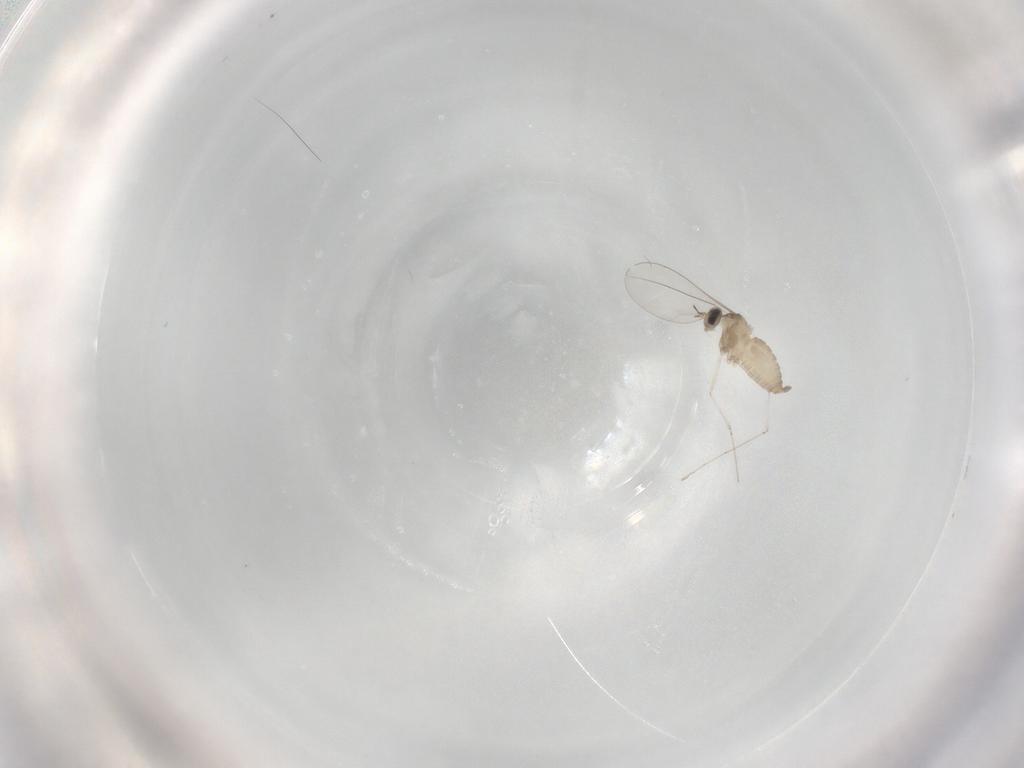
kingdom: Animalia
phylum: Arthropoda
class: Insecta
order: Diptera
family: Cecidomyiidae
